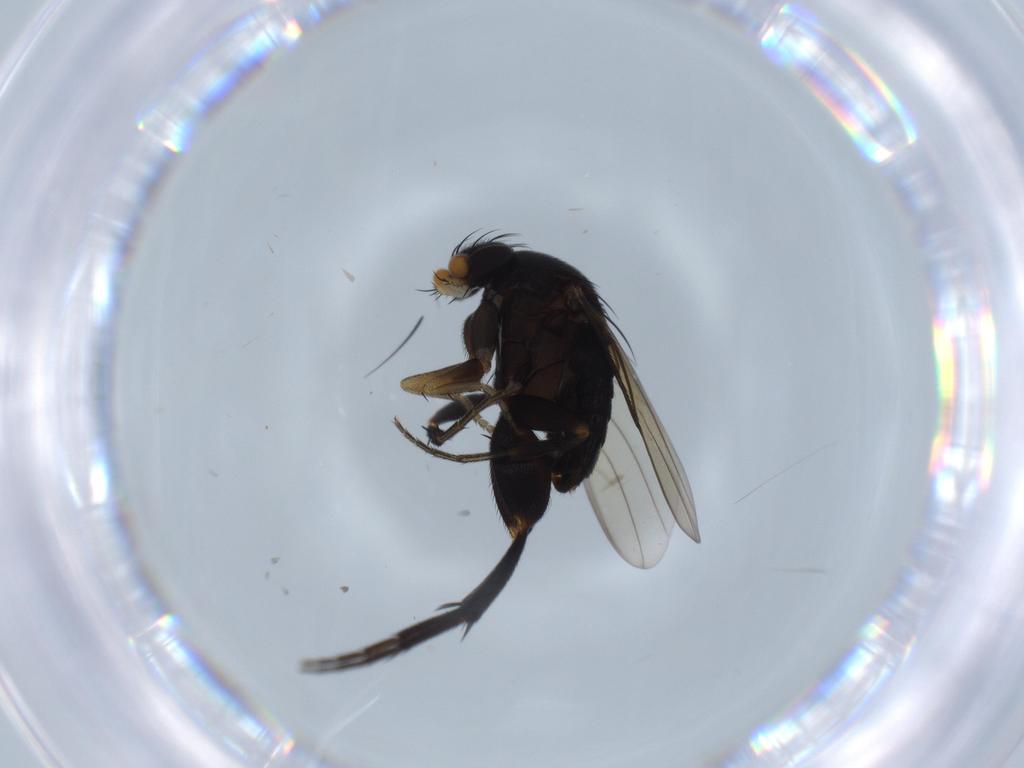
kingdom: Animalia
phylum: Arthropoda
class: Insecta
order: Diptera
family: Phoridae
